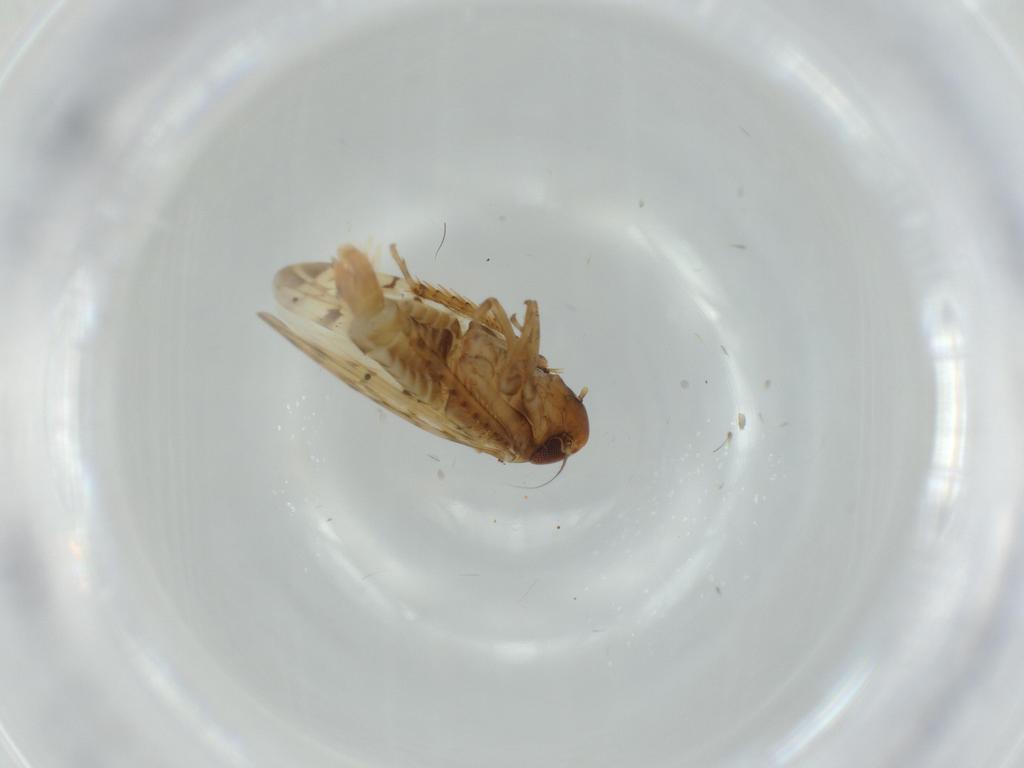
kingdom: Animalia
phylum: Arthropoda
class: Insecta
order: Hemiptera
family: Cicadellidae
